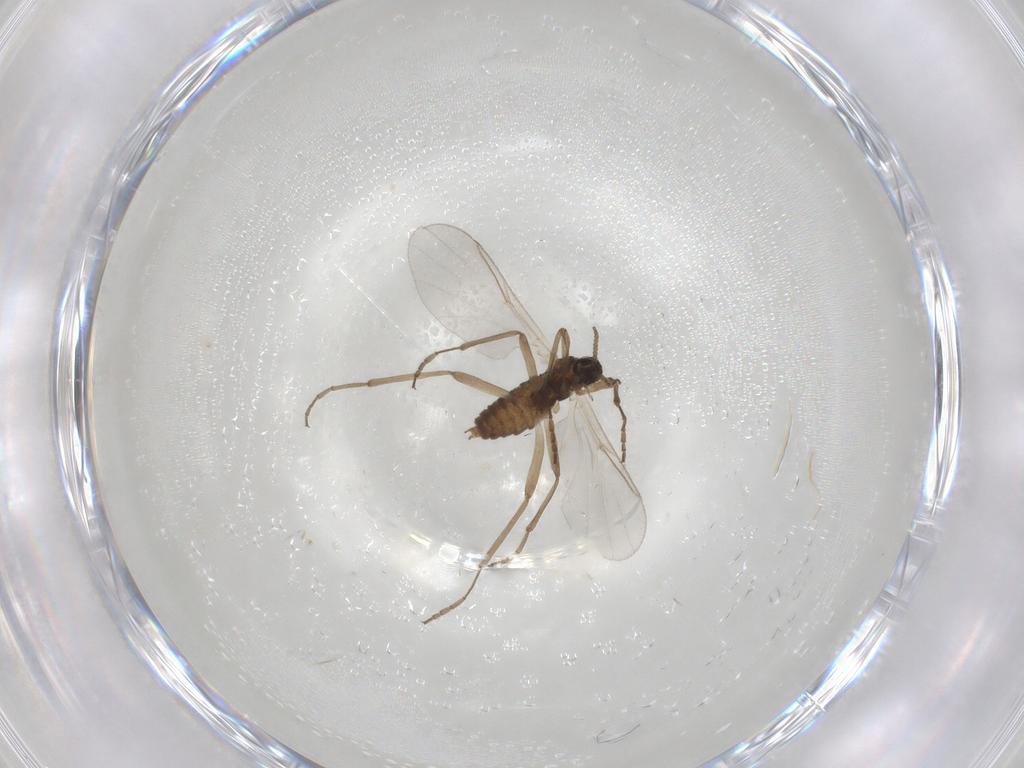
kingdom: Animalia
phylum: Arthropoda
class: Insecta
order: Diptera
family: Cecidomyiidae
